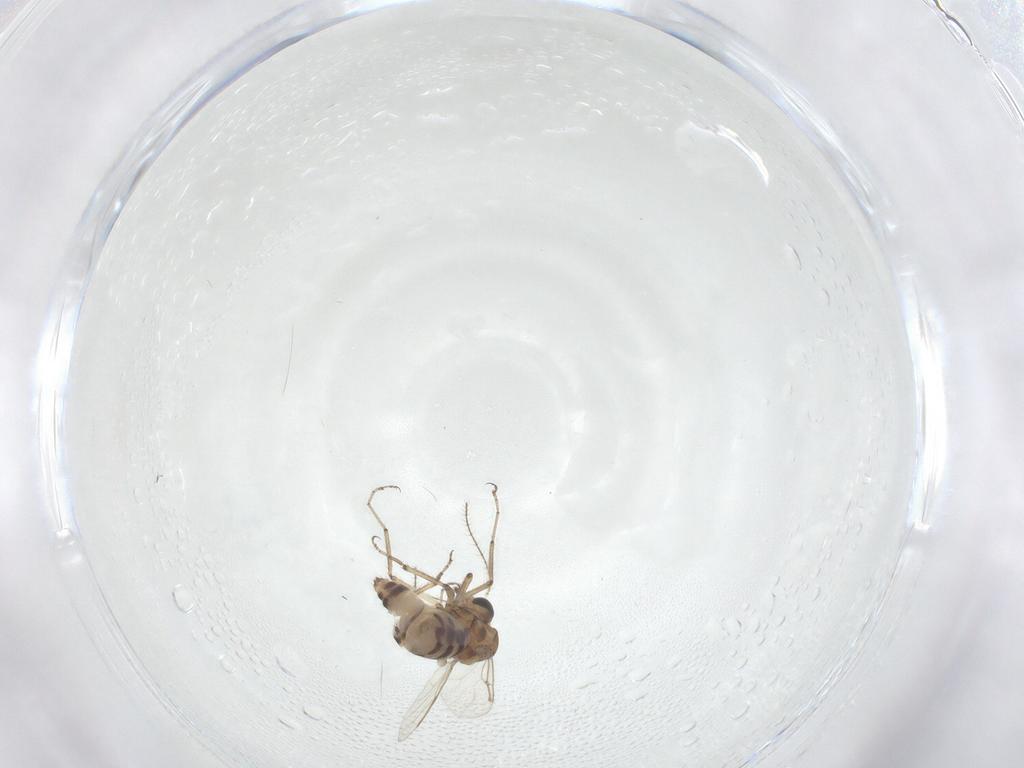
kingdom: Animalia
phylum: Arthropoda
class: Insecta
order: Diptera
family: Ceratopogonidae
